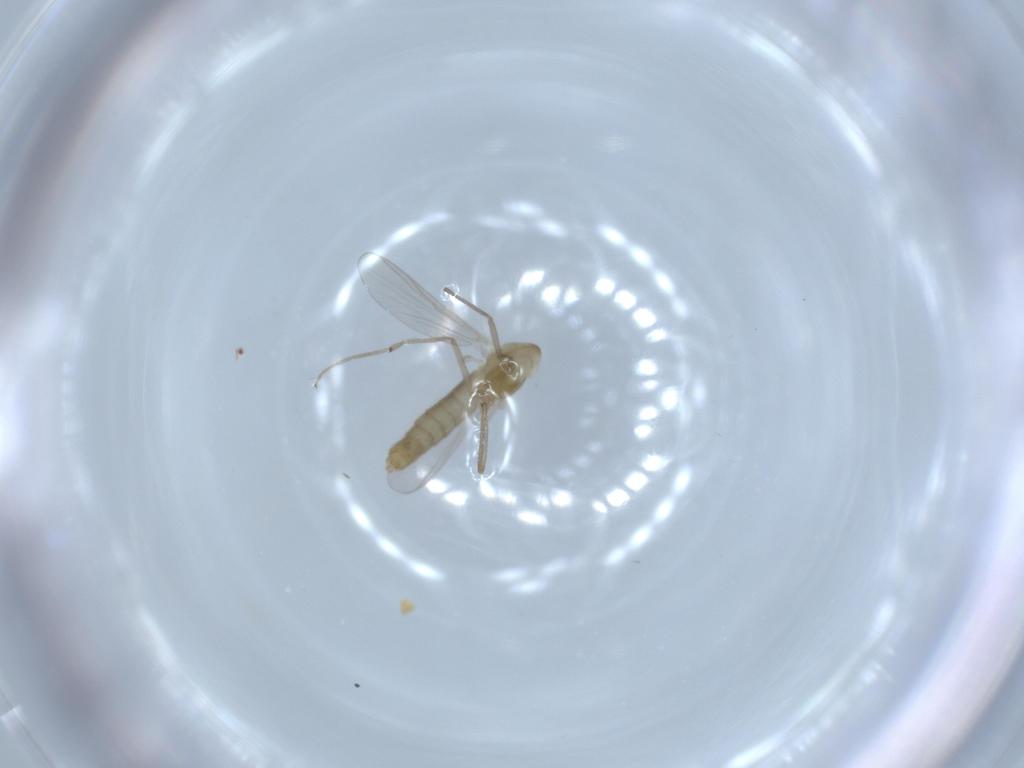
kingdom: Animalia
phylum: Arthropoda
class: Insecta
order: Diptera
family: Chironomidae
